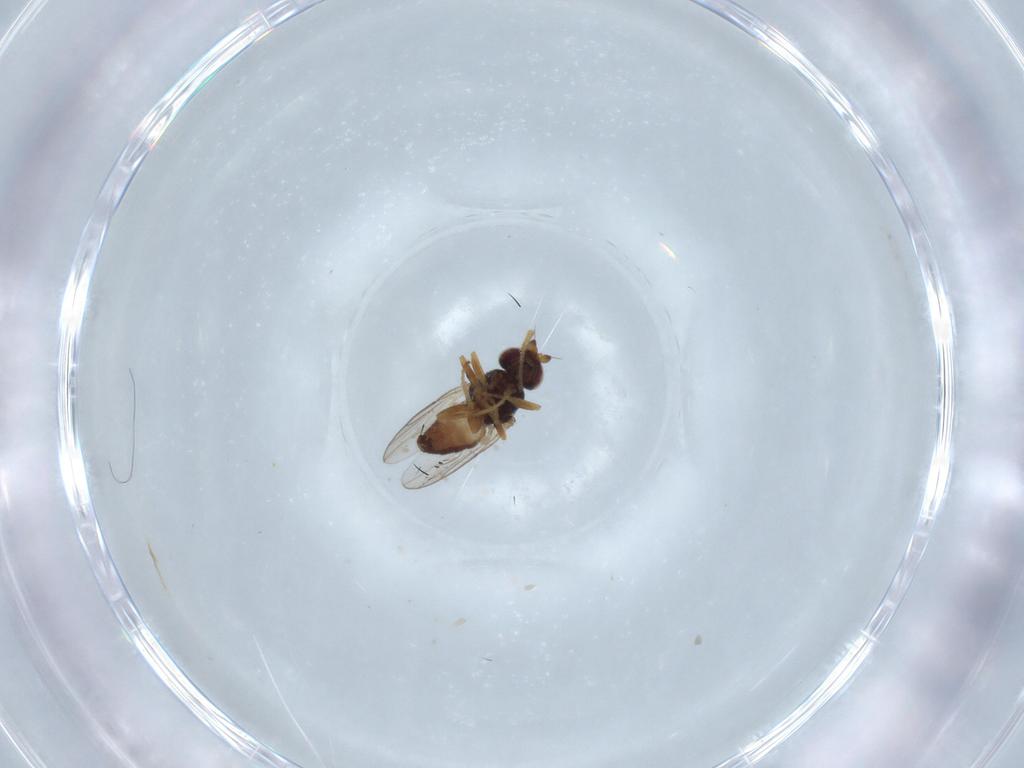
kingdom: Animalia
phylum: Arthropoda
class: Insecta
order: Diptera
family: Chloropidae
